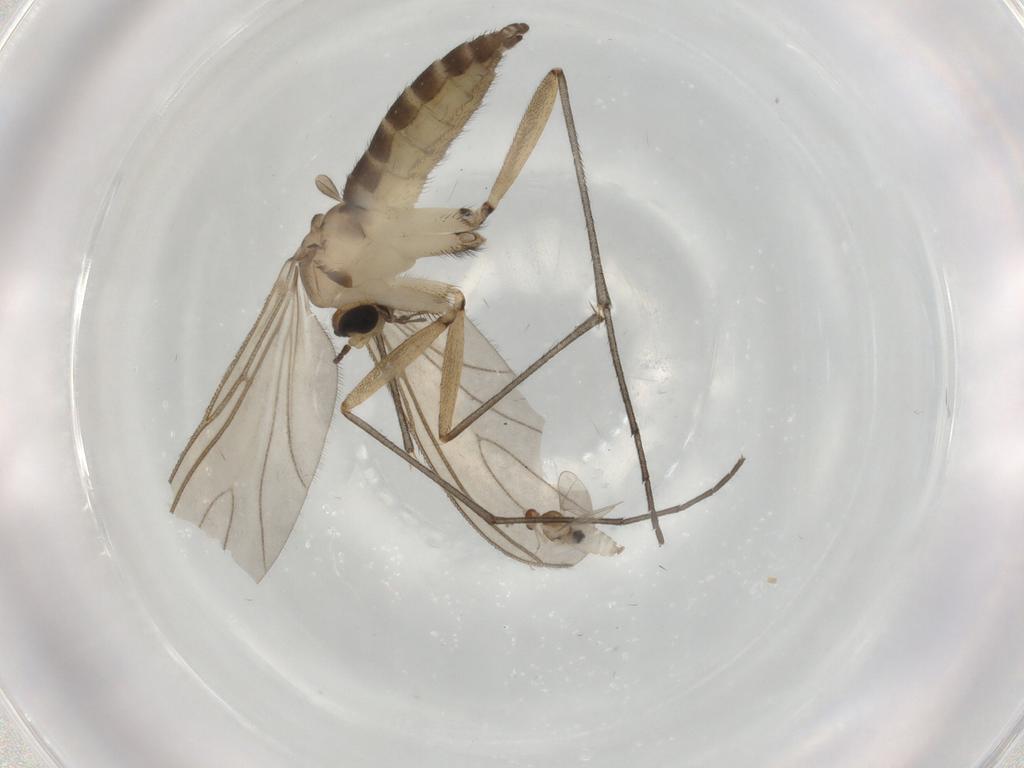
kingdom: Animalia
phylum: Arthropoda
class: Insecta
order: Diptera
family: Sciaridae
